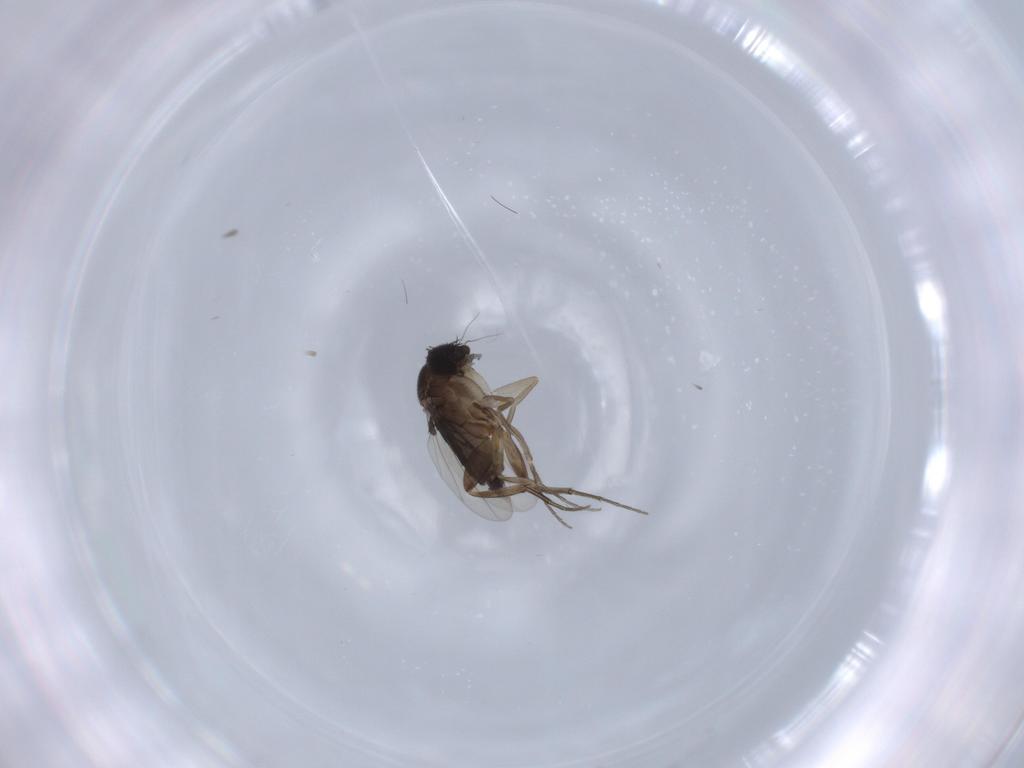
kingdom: Animalia
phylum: Arthropoda
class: Insecta
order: Diptera
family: Chironomidae
